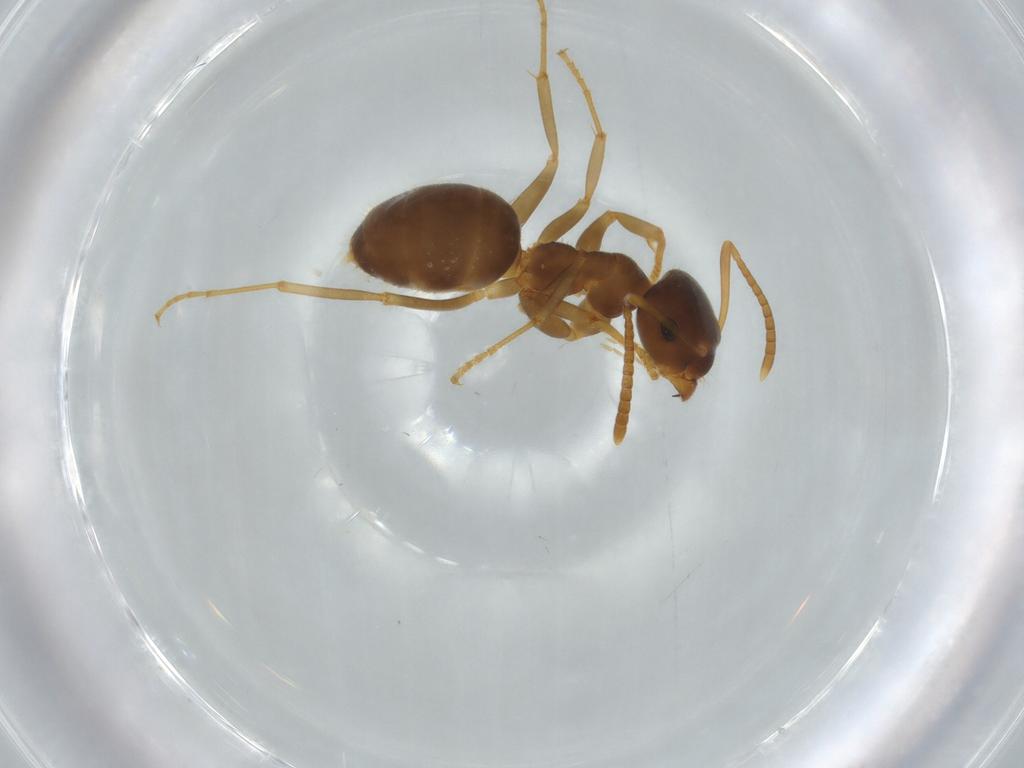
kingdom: Animalia
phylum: Arthropoda
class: Insecta
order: Hymenoptera
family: Formicidae
